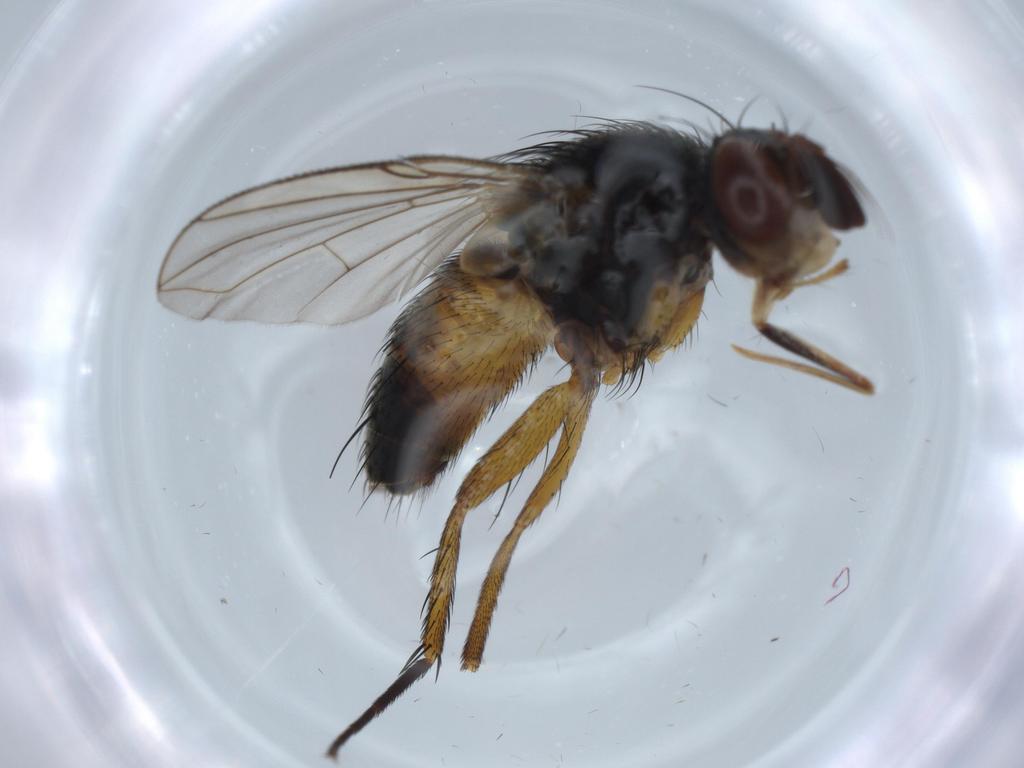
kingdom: Animalia
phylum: Arthropoda
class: Insecta
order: Diptera
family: Tachinidae
